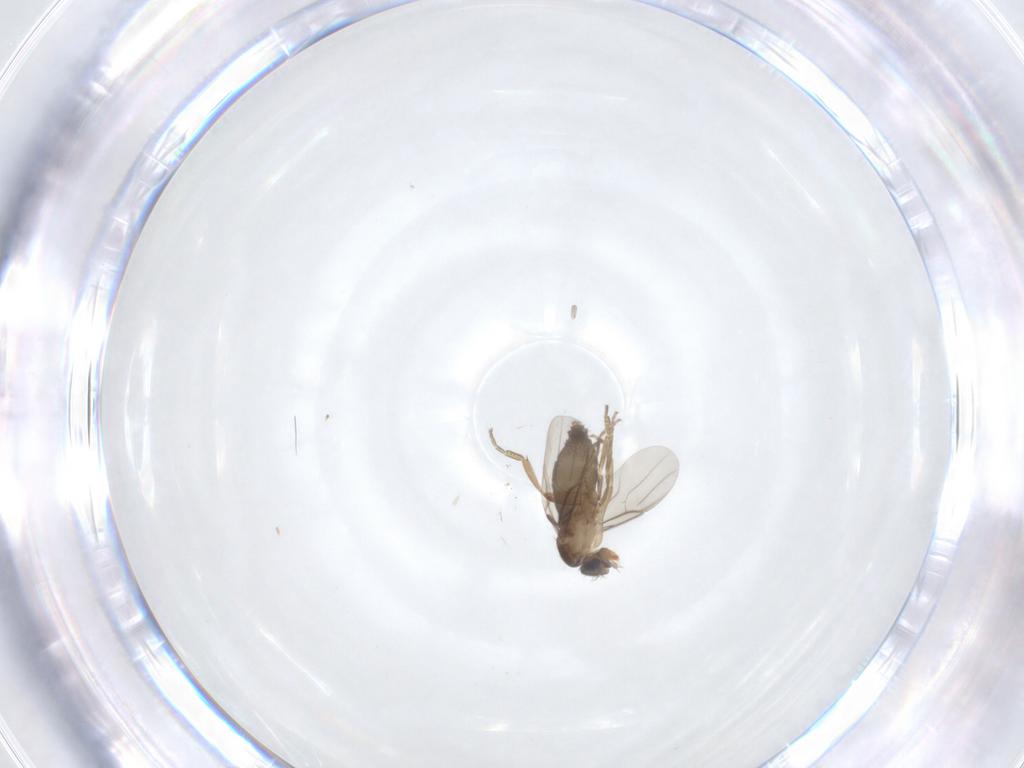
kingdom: Animalia
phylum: Arthropoda
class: Insecta
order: Diptera
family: Phoridae
